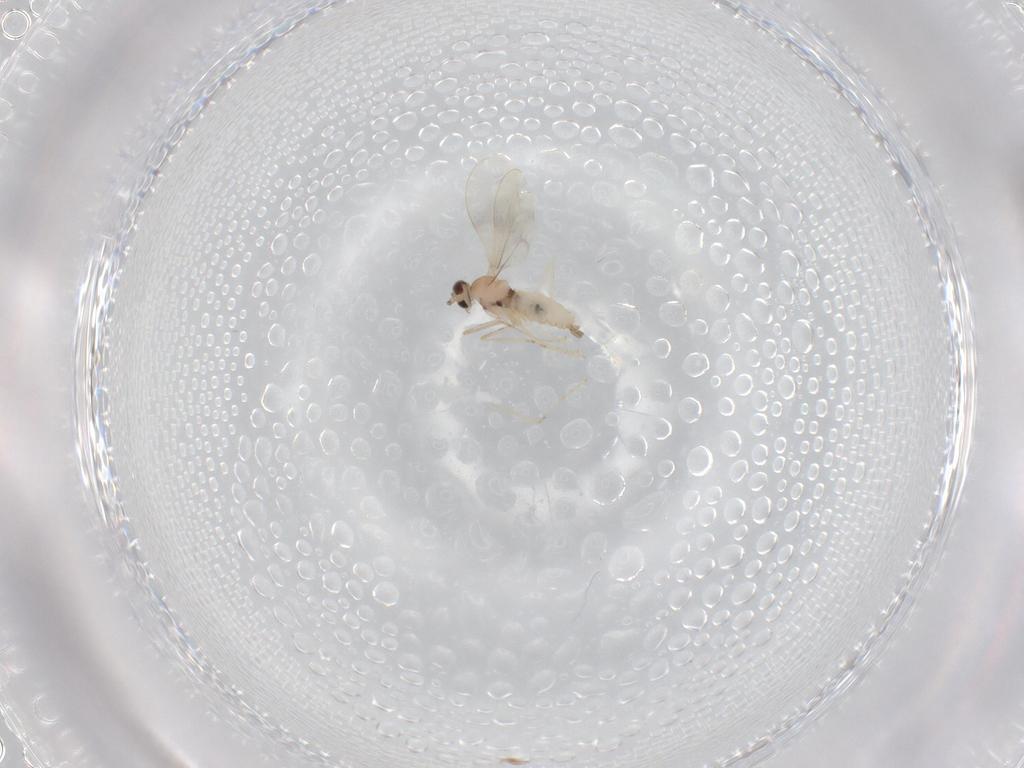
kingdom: Animalia
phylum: Arthropoda
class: Insecta
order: Diptera
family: Cecidomyiidae
